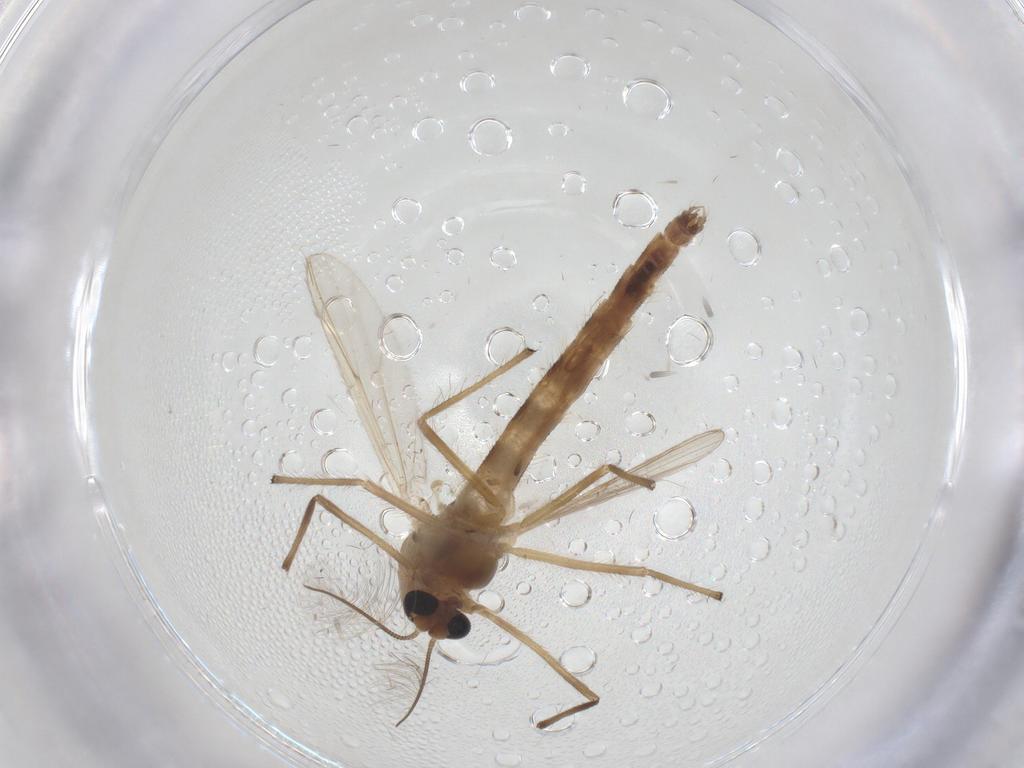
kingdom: Animalia
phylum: Arthropoda
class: Insecta
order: Diptera
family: Chironomidae
